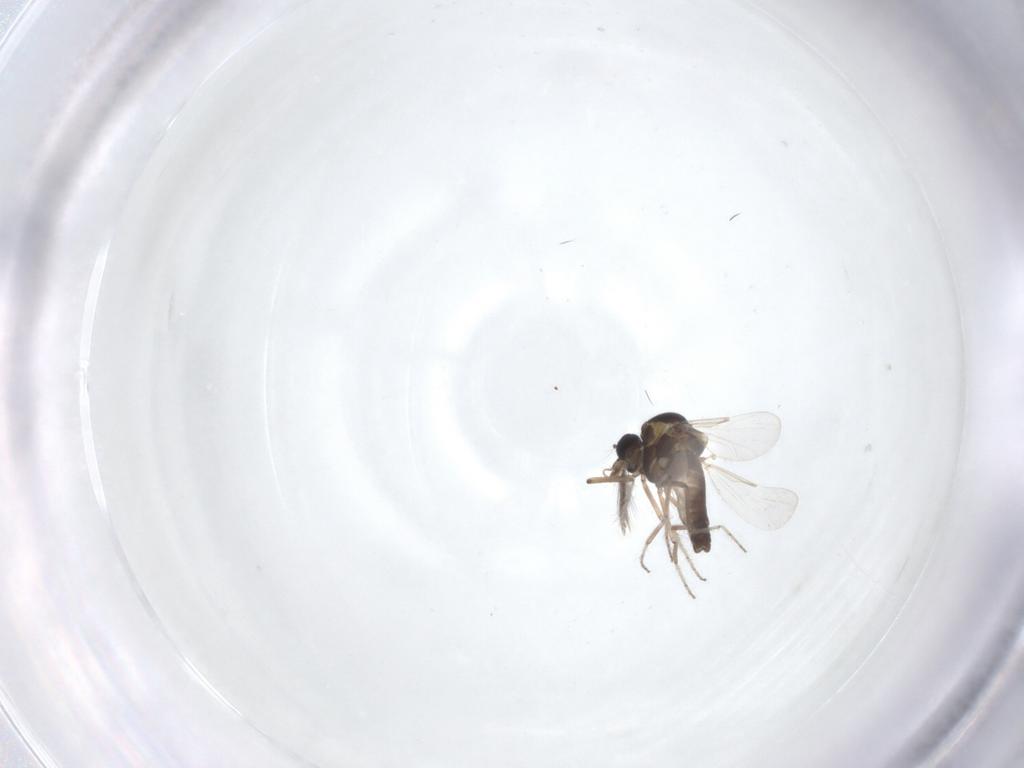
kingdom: Animalia
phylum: Arthropoda
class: Insecta
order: Diptera
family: Ceratopogonidae
